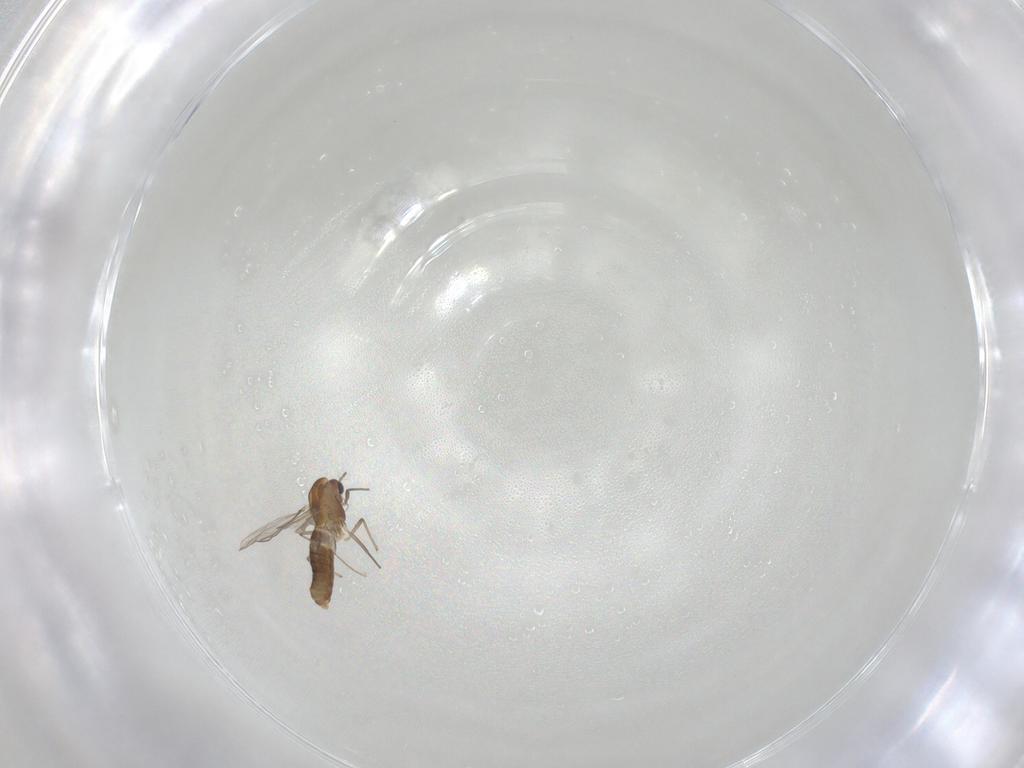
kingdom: Animalia
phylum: Arthropoda
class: Insecta
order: Diptera
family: Chironomidae
